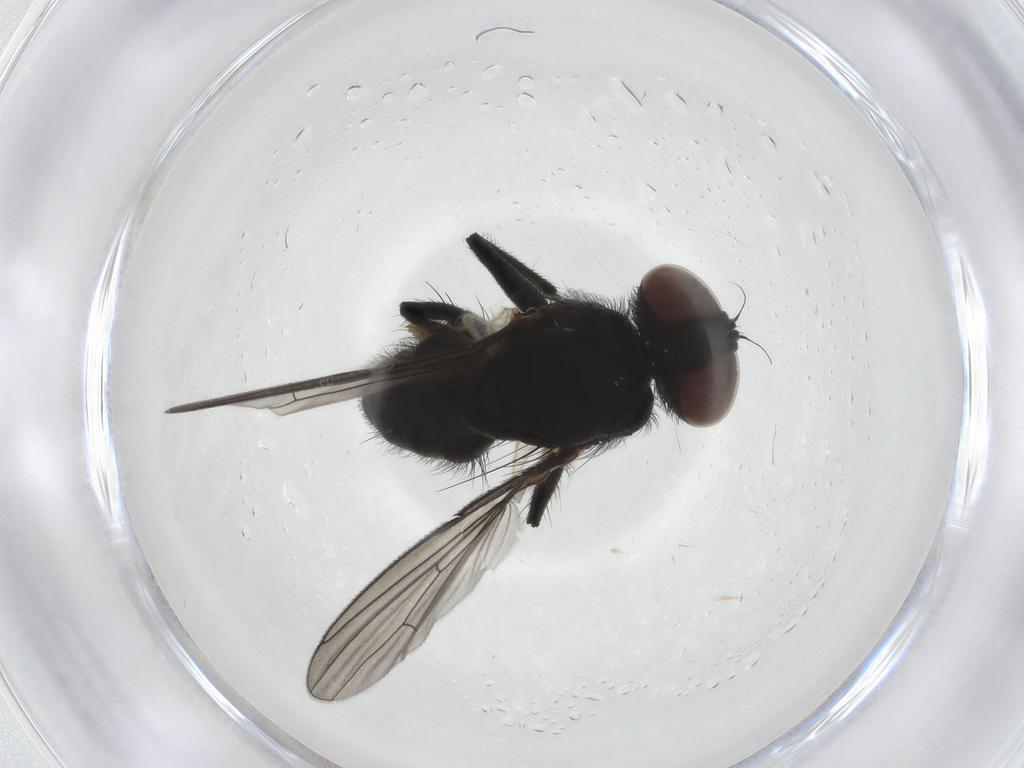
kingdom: Animalia
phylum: Arthropoda
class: Insecta
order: Diptera
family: Muscidae
